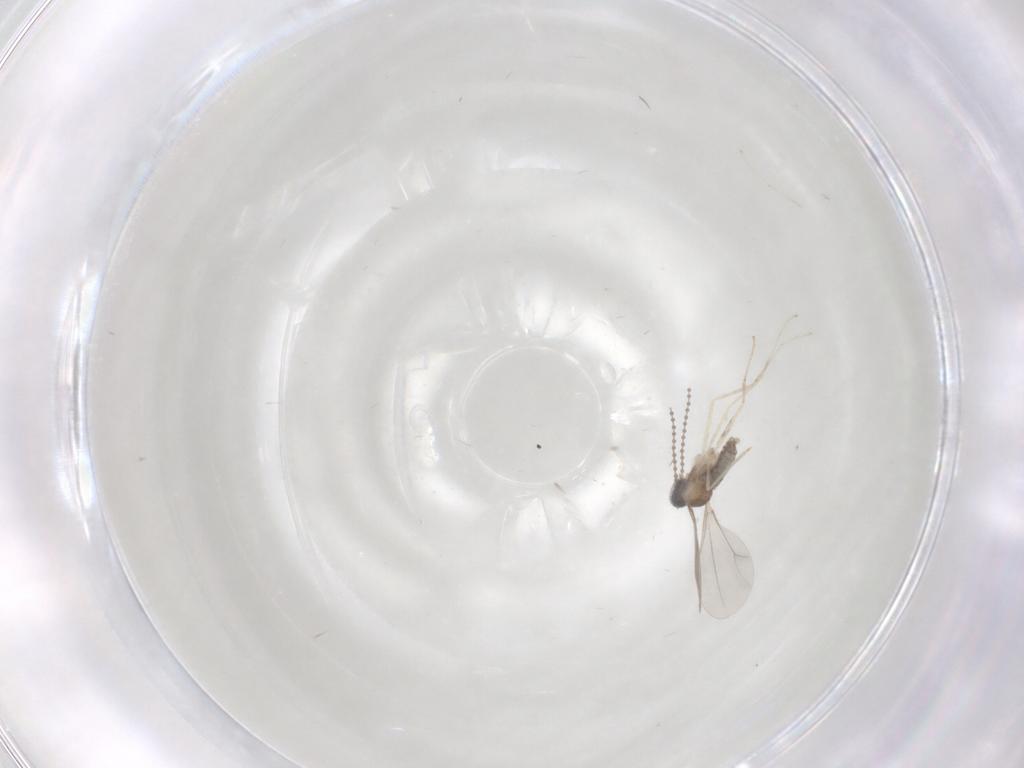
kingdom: Animalia
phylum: Arthropoda
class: Insecta
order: Diptera
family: Cecidomyiidae
